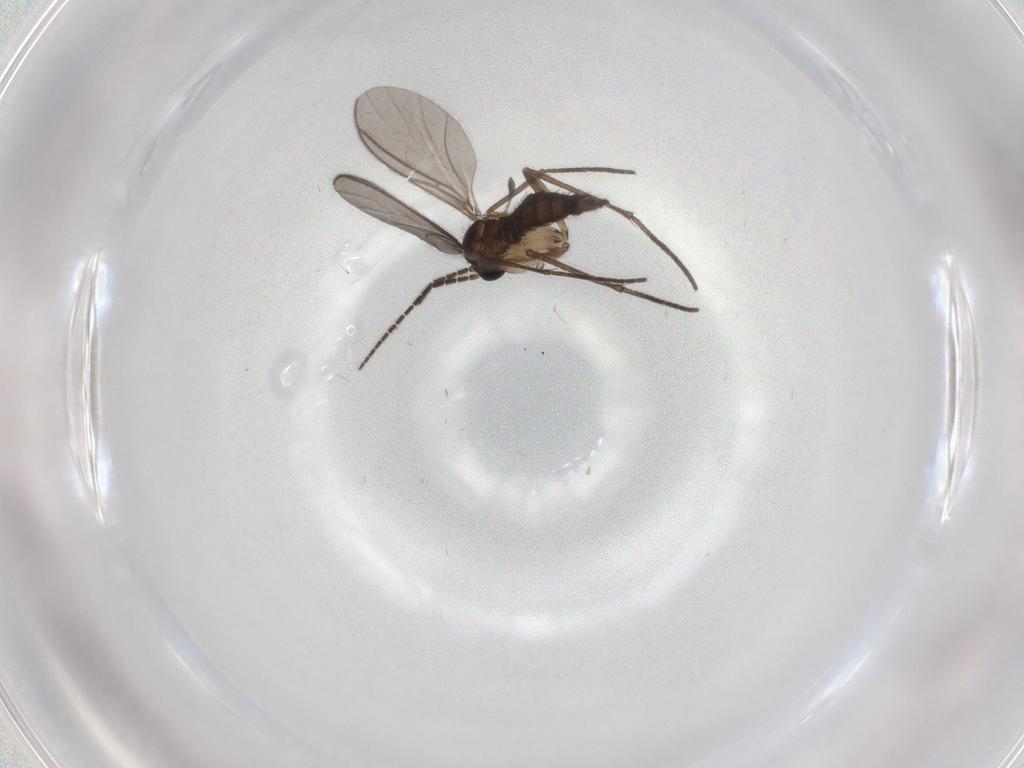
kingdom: Animalia
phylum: Arthropoda
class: Insecta
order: Diptera
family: Sciaridae
